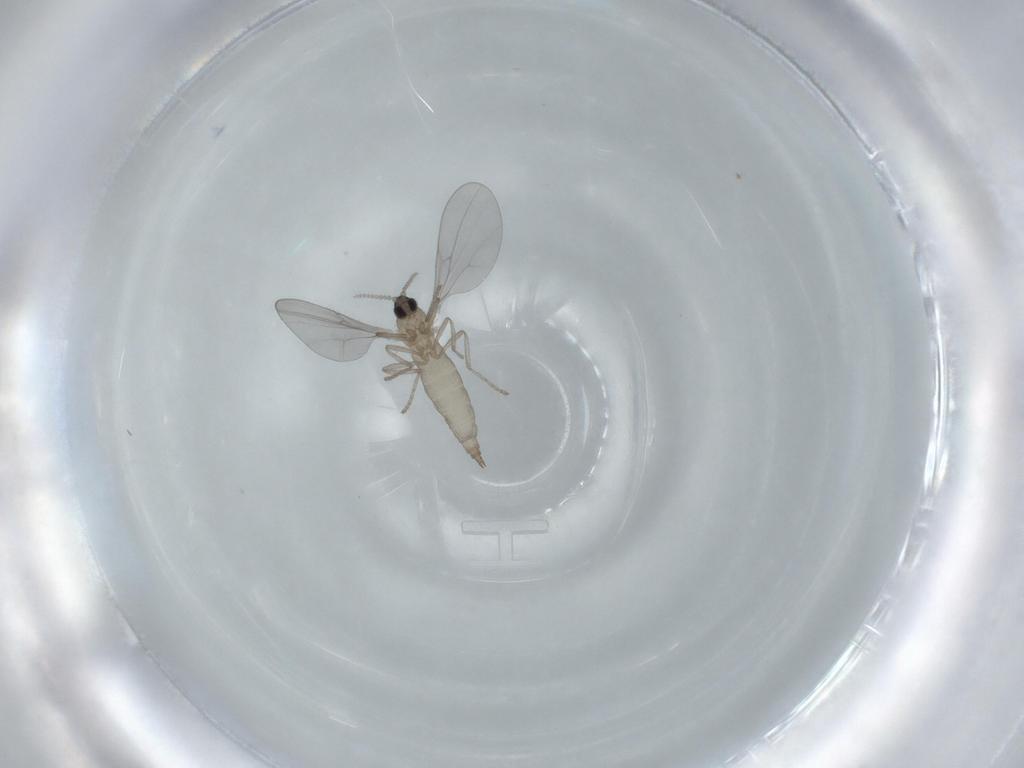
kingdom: Animalia
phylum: Arthropoda
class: Insecta
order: Diptera
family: Cecidomyiidae
